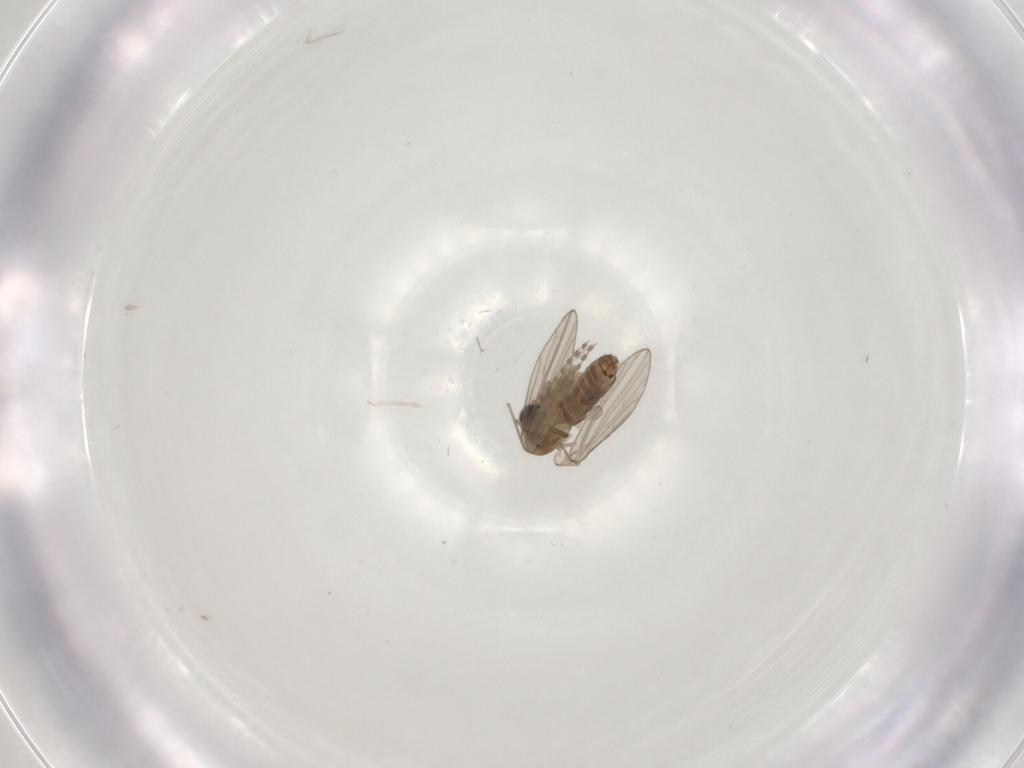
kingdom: Animalia
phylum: Arthropoda
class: Insecta
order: Diptera
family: Cecidomyiidae
